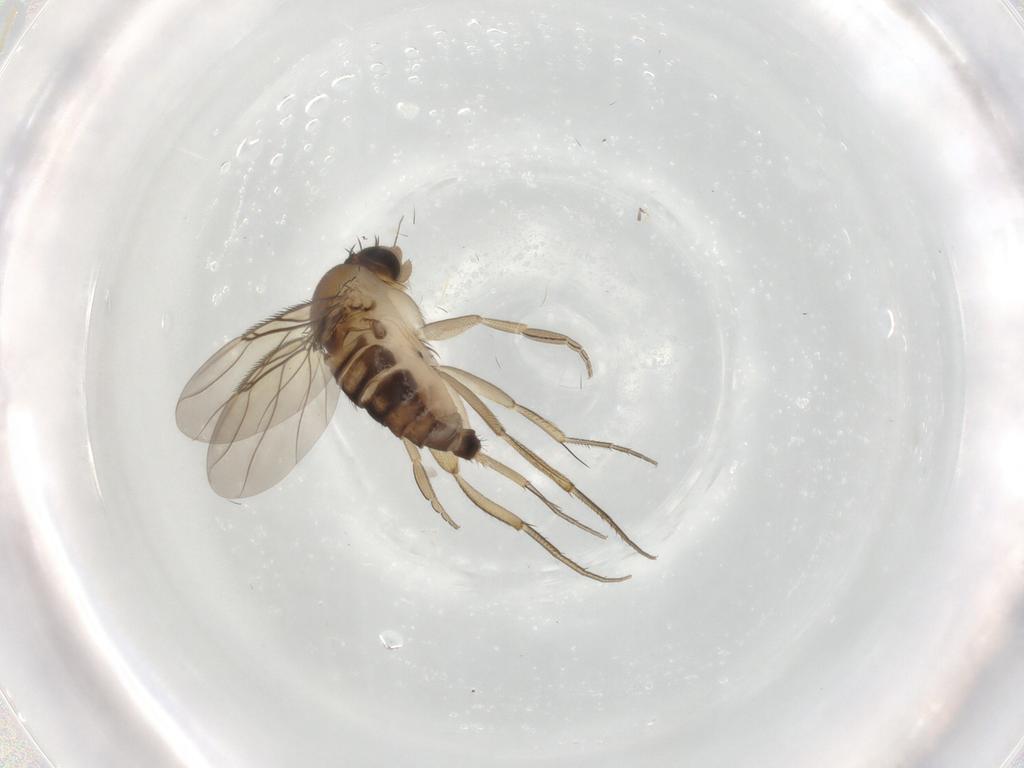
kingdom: Animalia
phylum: Arthropoda
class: Insecta
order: Diptera
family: Phoridae
